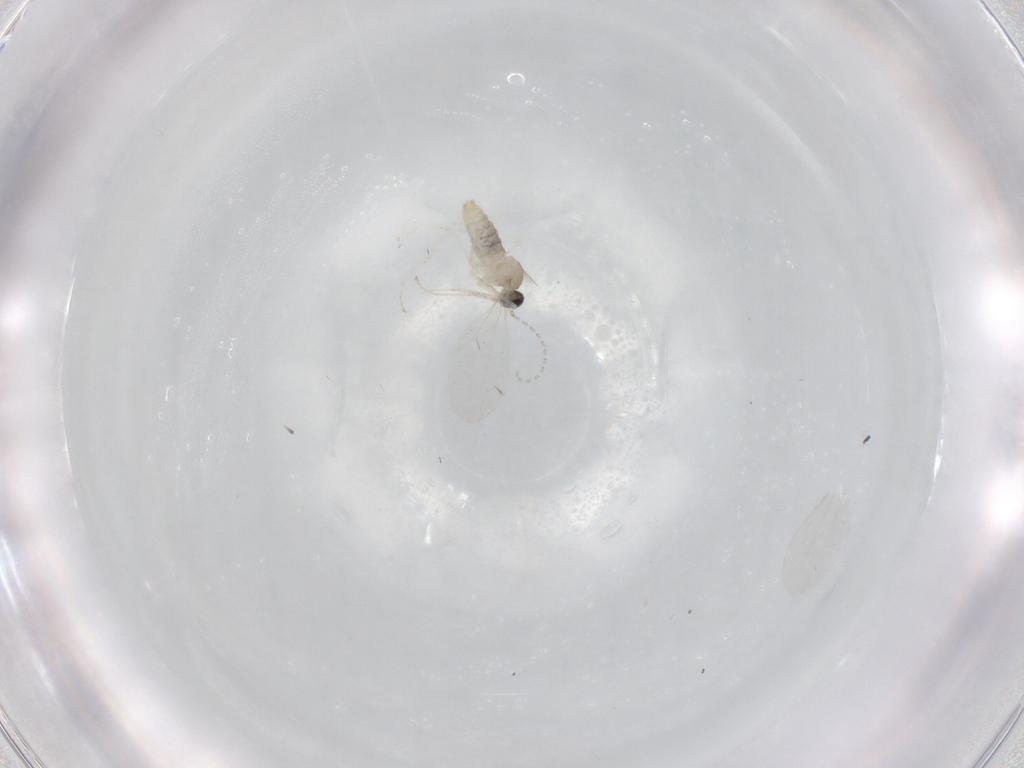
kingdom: Animalia
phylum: Arthropoda
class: Insecta
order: Diptera
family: Cecidomyiidae
